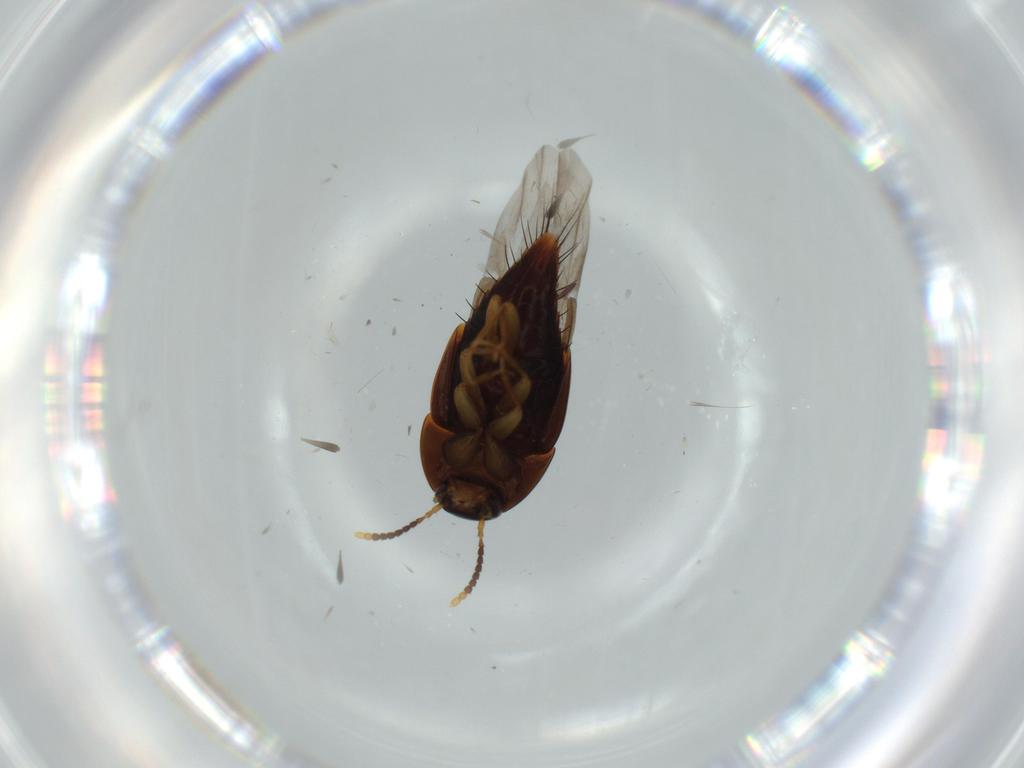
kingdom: Animalia
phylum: Arthropoda
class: Insecta
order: Coleoptera
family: Staphylinidae
